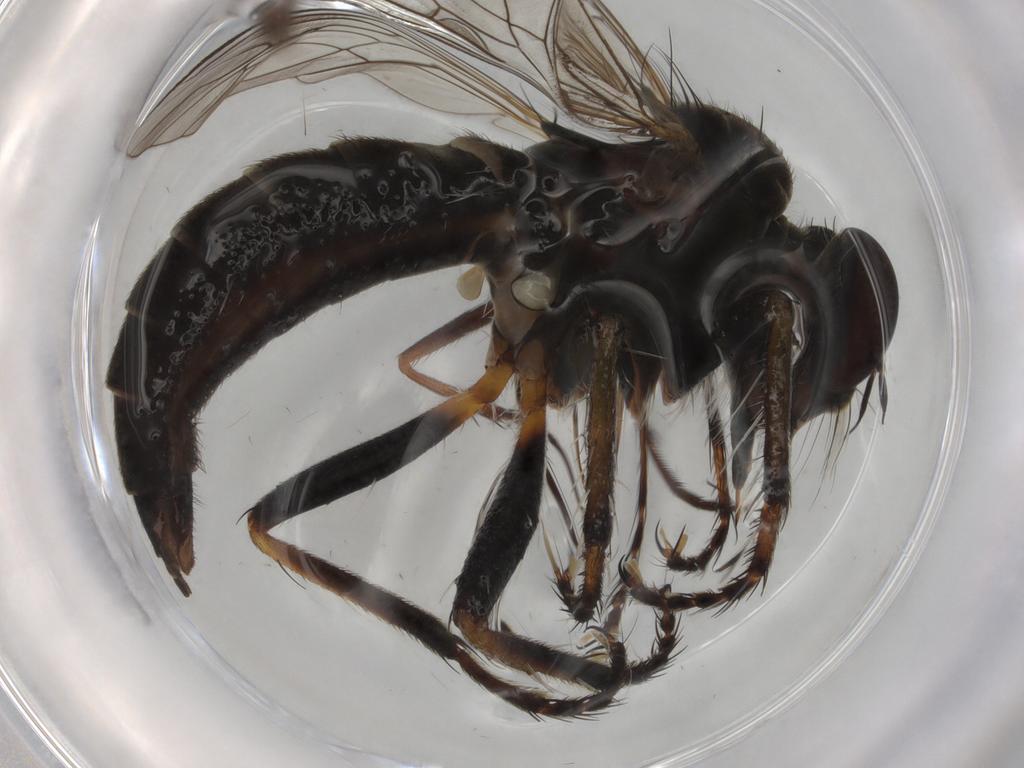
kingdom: Animalia
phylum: Arthropoda
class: Insecta
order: Diptera
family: Chironomidae
